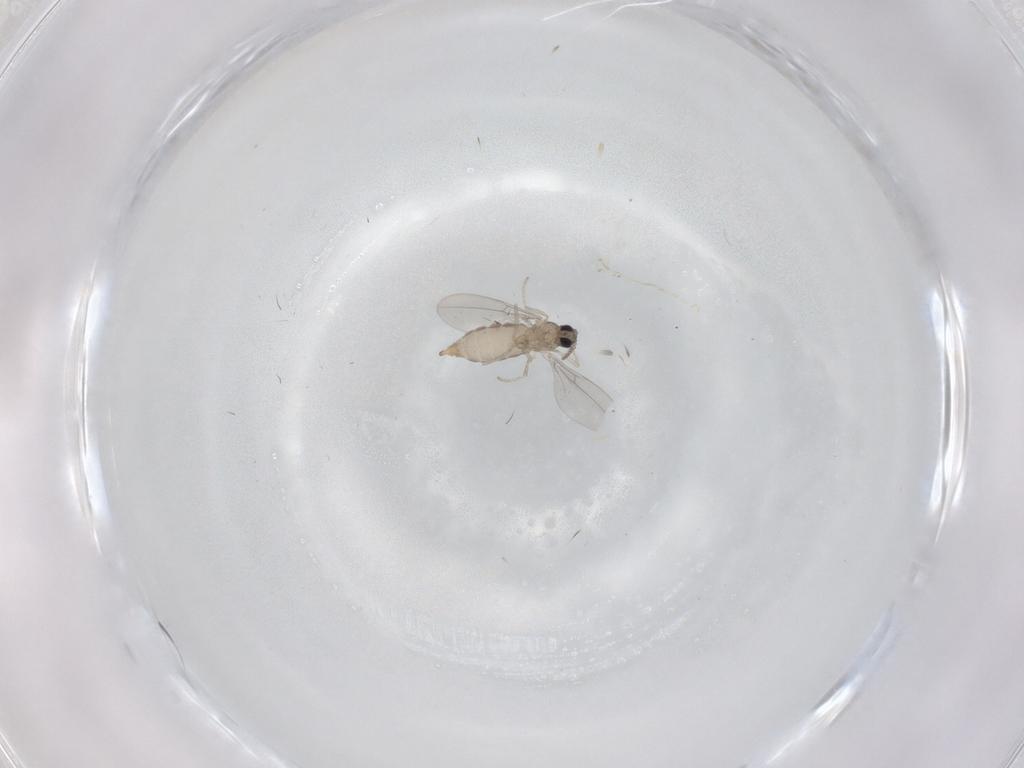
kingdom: Animalia
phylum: Arthropoda
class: Insecta
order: Diptera
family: Cecidomyiidae
